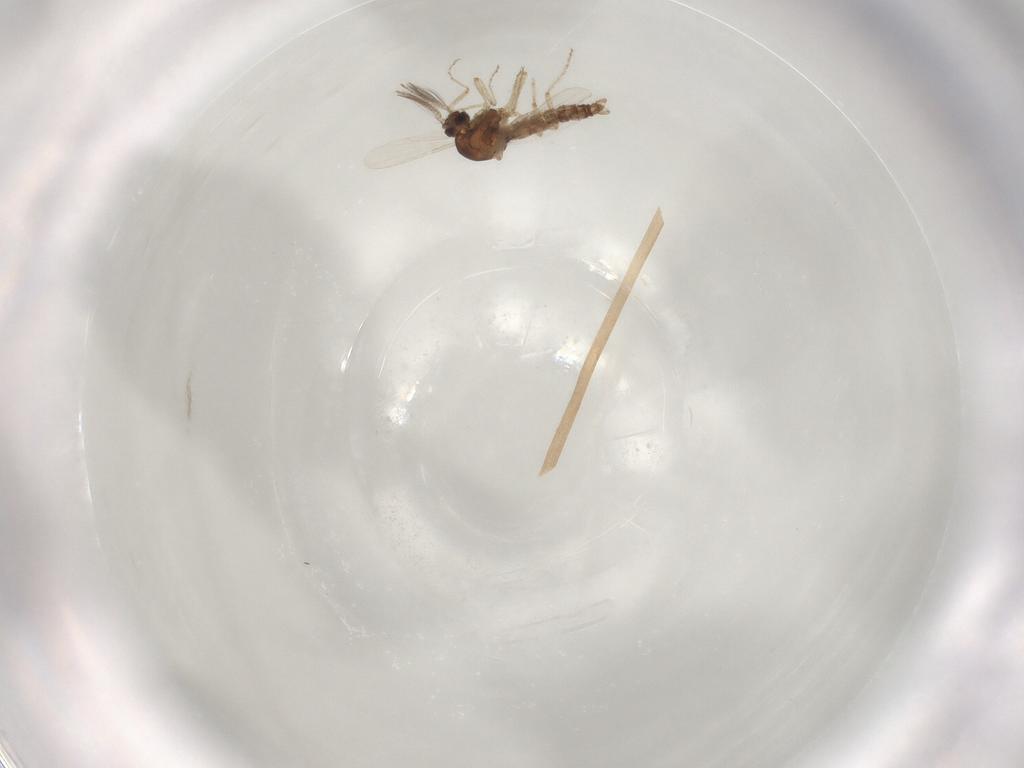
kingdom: Animalia
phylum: Arthropoda
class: Insecta
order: Diptera
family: Ceratopogonidae
